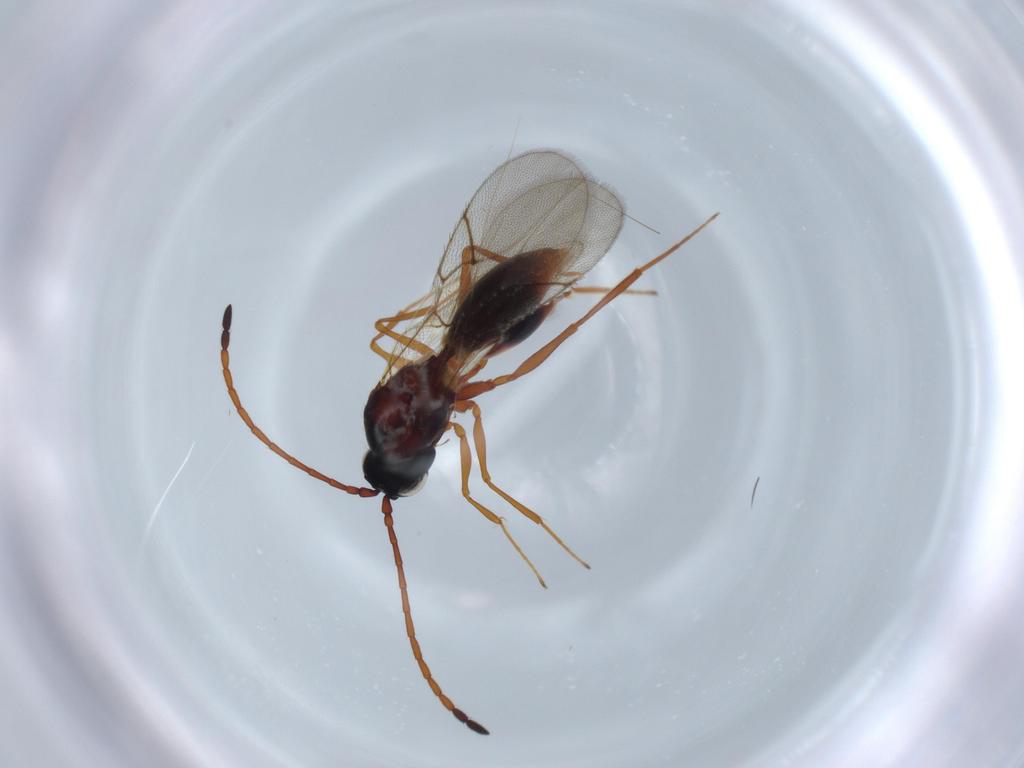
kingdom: Animalia
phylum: Arthropoda
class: Insecta
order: Hymenoptera
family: Figitidae
